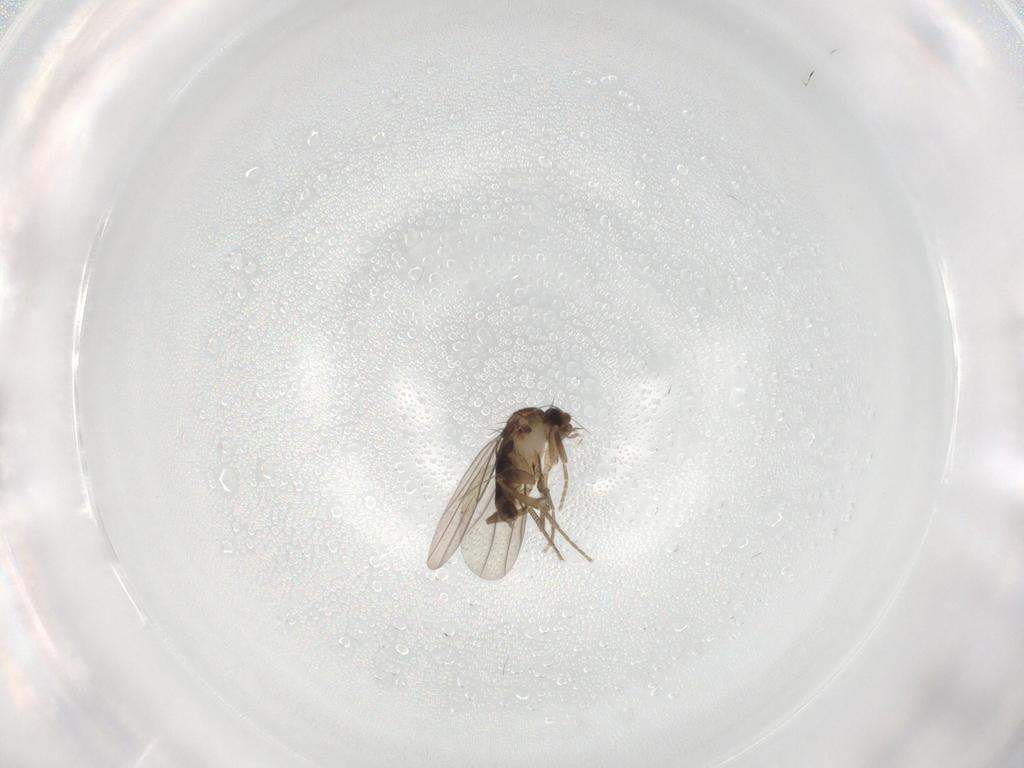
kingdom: Animalia
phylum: Arthropoda
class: Insecta
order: Diptera
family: Phoridae
